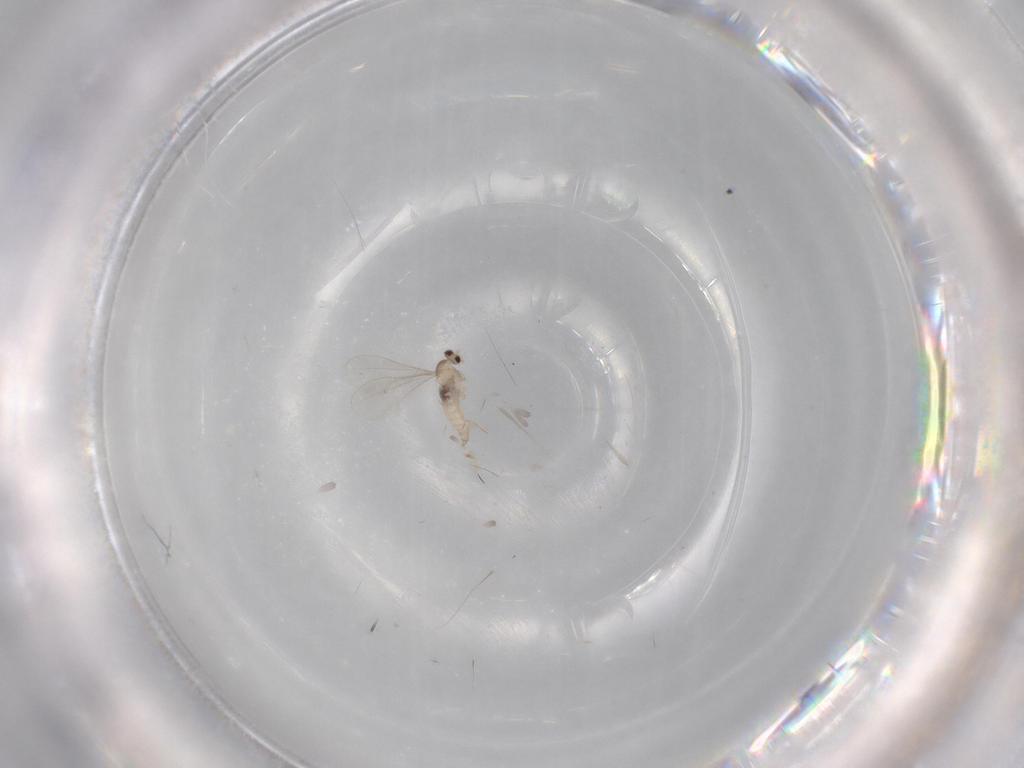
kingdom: Animalia
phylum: Arthropoda
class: Insecta
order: Diptera
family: Cecidomyiidae
